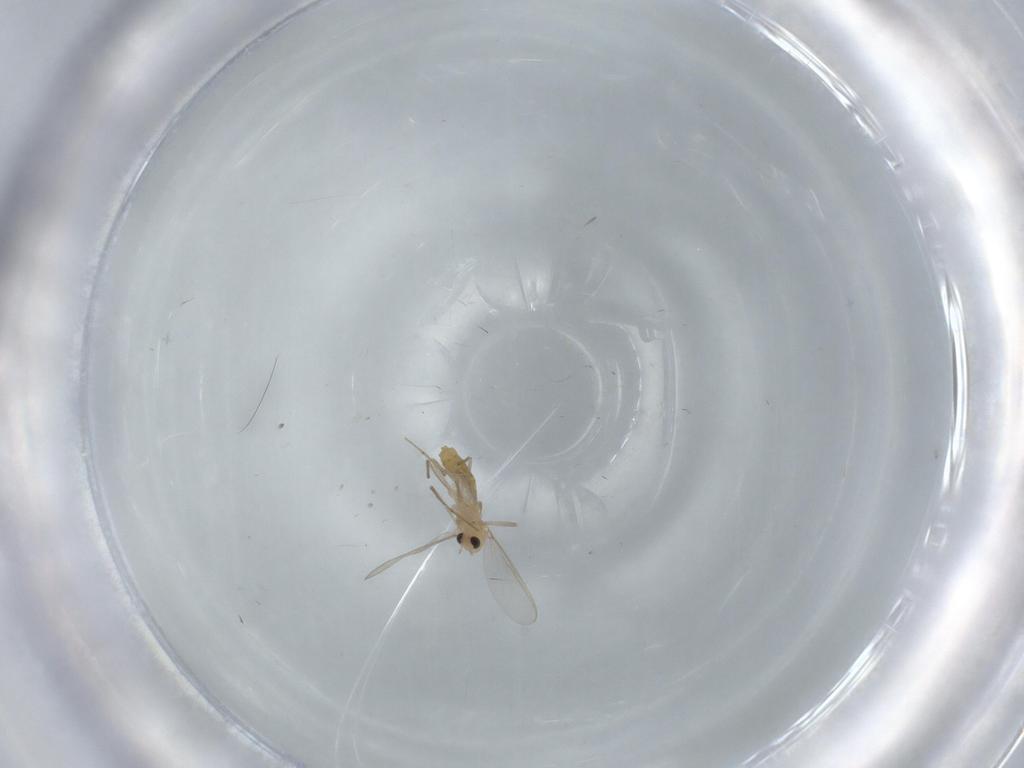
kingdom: Animalia
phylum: Arthropoda
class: Insecta
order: Diptera
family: Chironomidae
